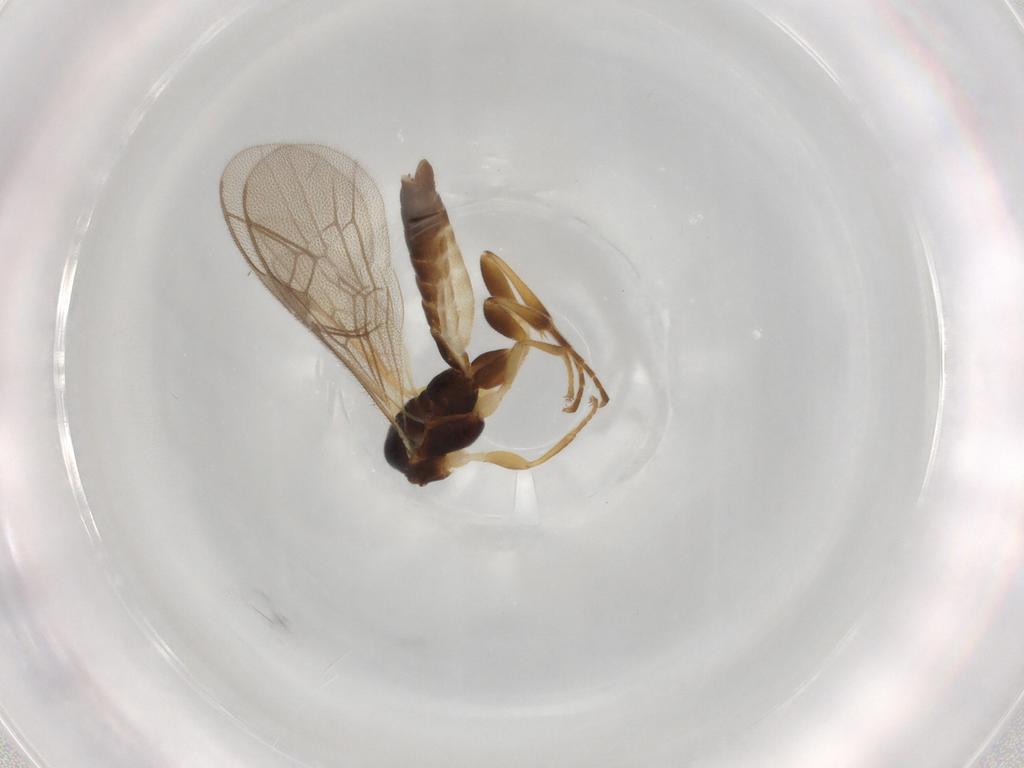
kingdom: Animalia
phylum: Arthropoda
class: Insecta
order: Hymenoptera
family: Ichneumonidae
